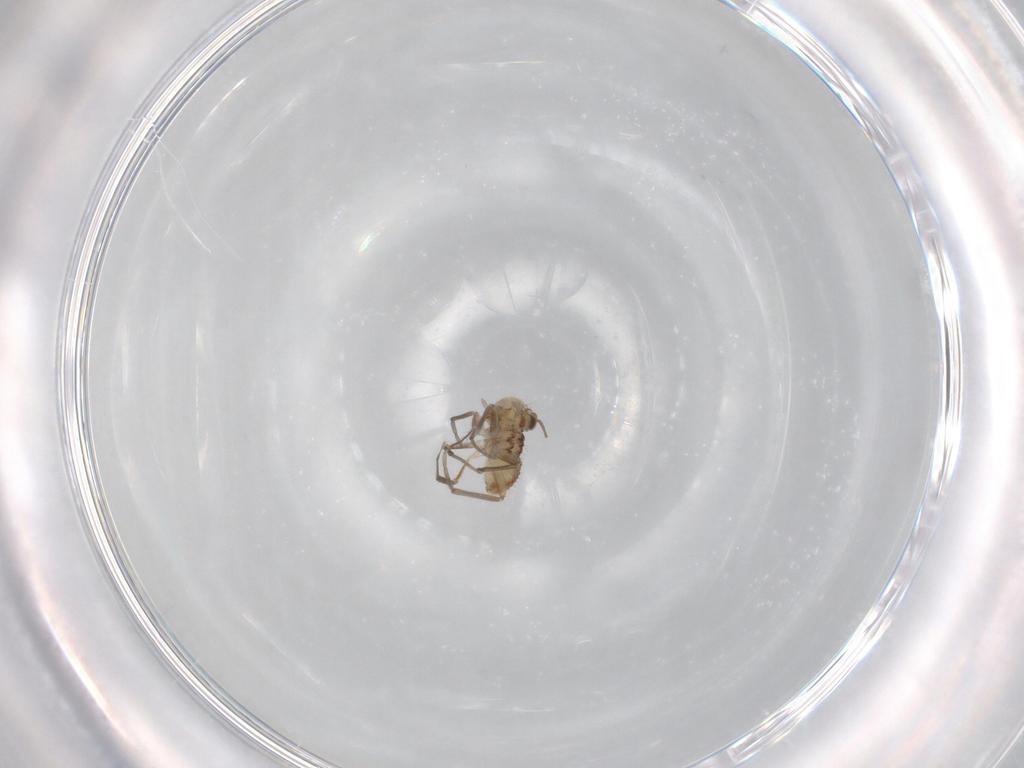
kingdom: Animalia
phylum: Arthropoda
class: Insecta
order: Psocodea
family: Mesopsocidae
